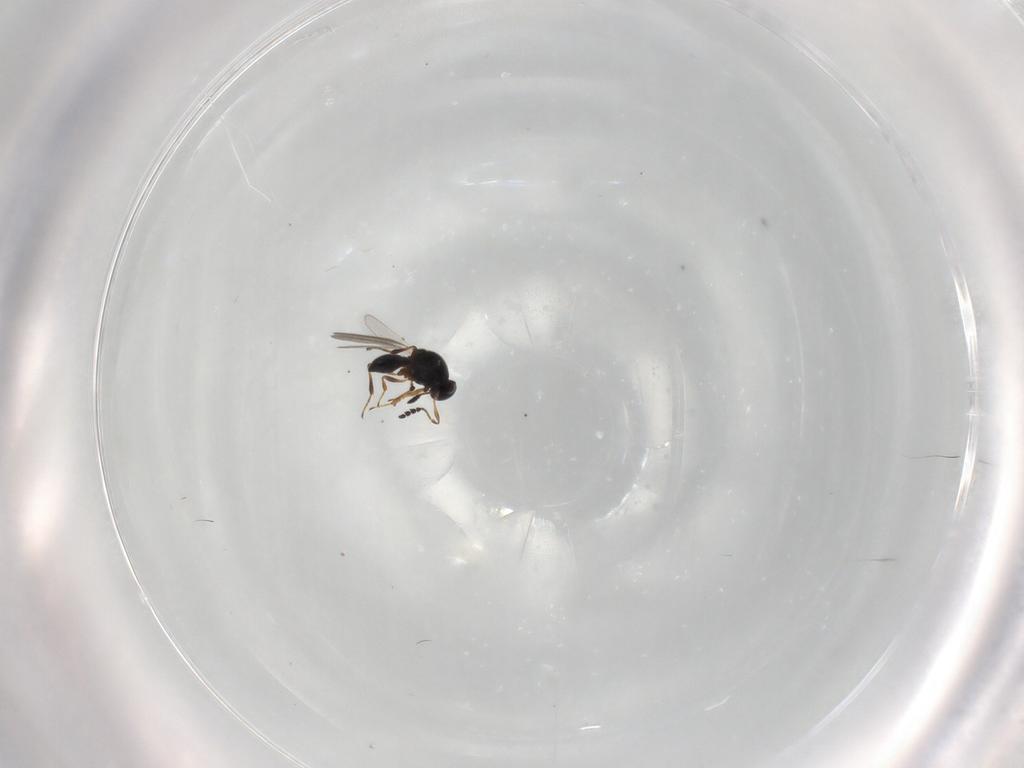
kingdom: Animalia
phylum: Arthropoda
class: Insecta
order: Hymenoptera
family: Platygastridae
